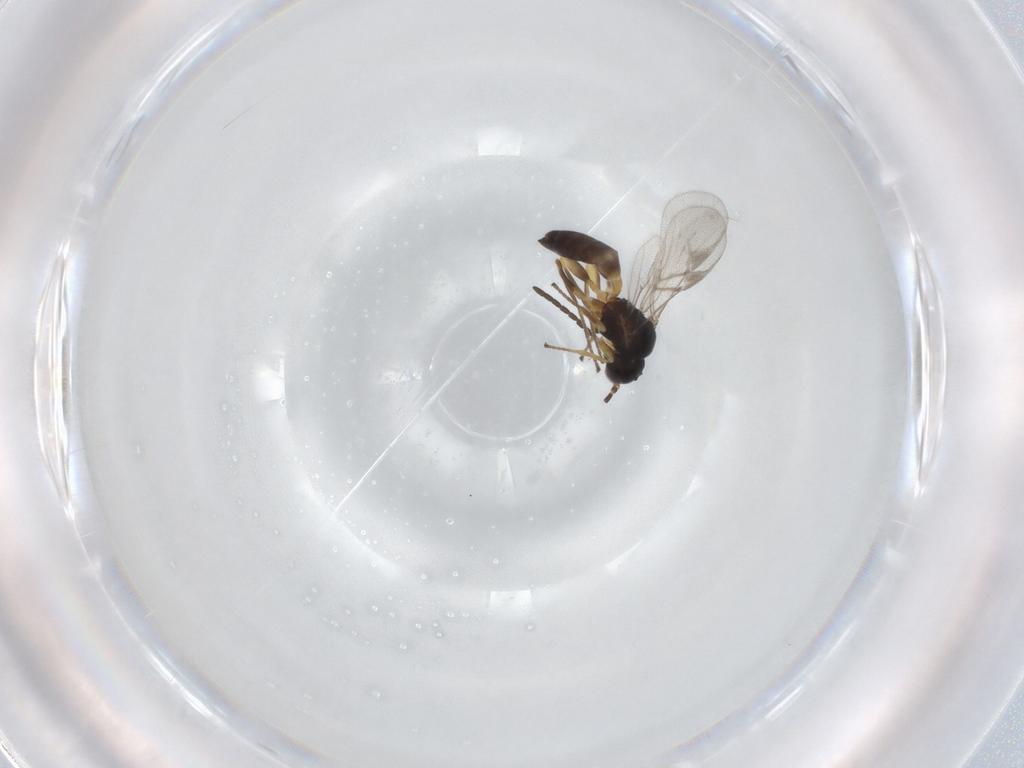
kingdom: Animalia
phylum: Arthropoda
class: Insecta
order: Hymenoptera
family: Braconidae
